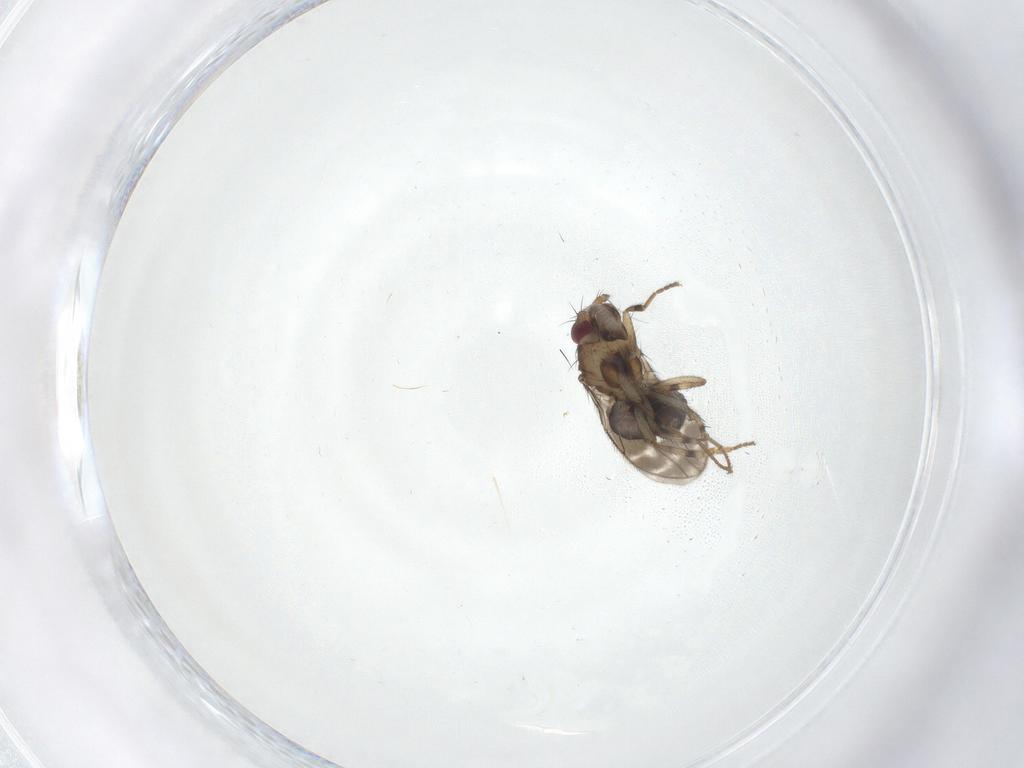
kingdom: Animalia
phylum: Arthropoda
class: Insecta
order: Diptera
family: Sphaeroceridae
